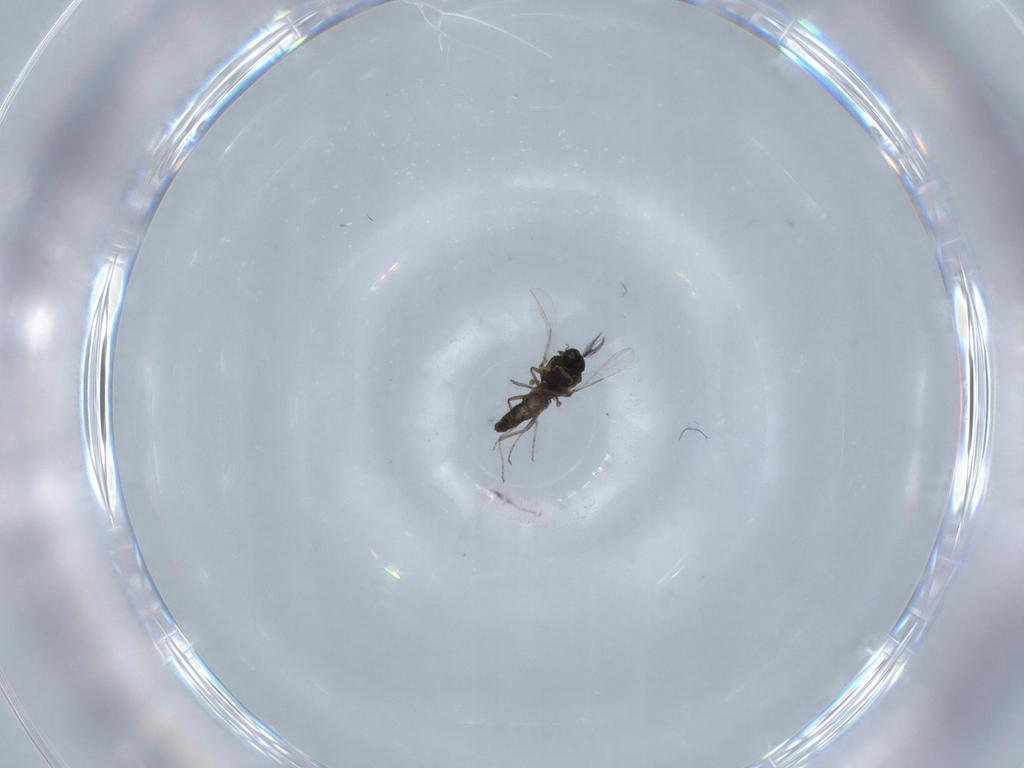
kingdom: Animalia
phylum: Arthropoda
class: Insecta
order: Diptera
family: Ceratopogonidae
